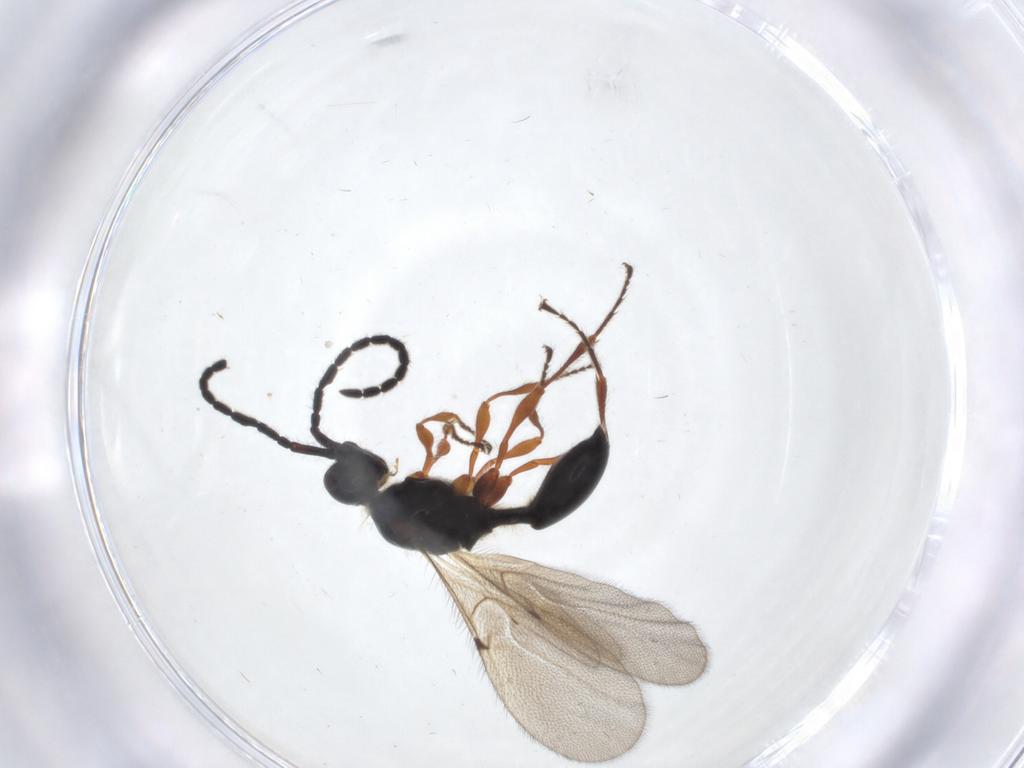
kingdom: Animalia
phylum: Arthropoda
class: Insecta
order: Hymenoptera
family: Diapriidae
